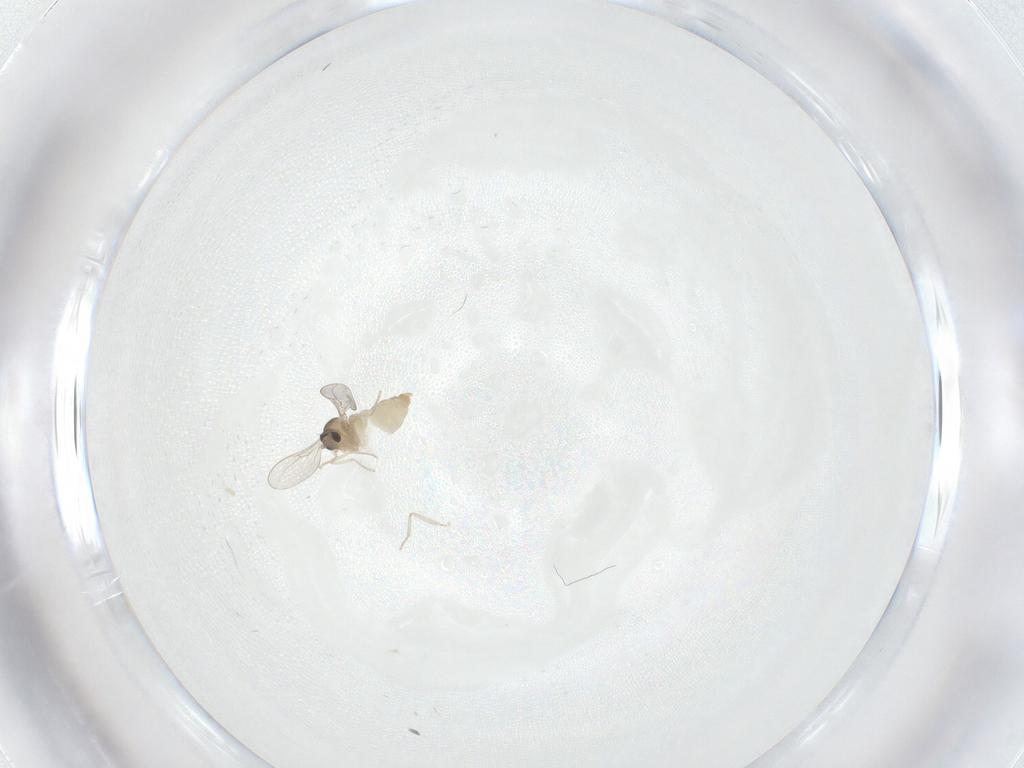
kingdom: Animalia
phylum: Arthropoda
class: Insecta
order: Diptera
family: Cecidomyiidae
